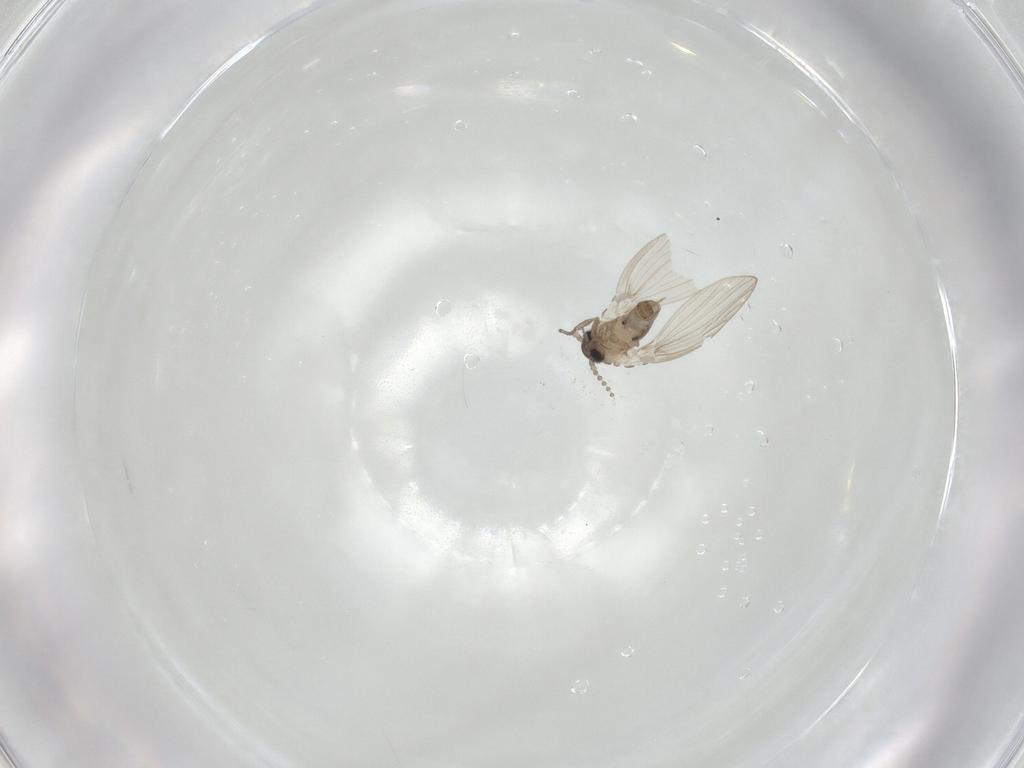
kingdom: Animalia
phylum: Arthropoda
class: Insecta
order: Diptera
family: Psychodidae
